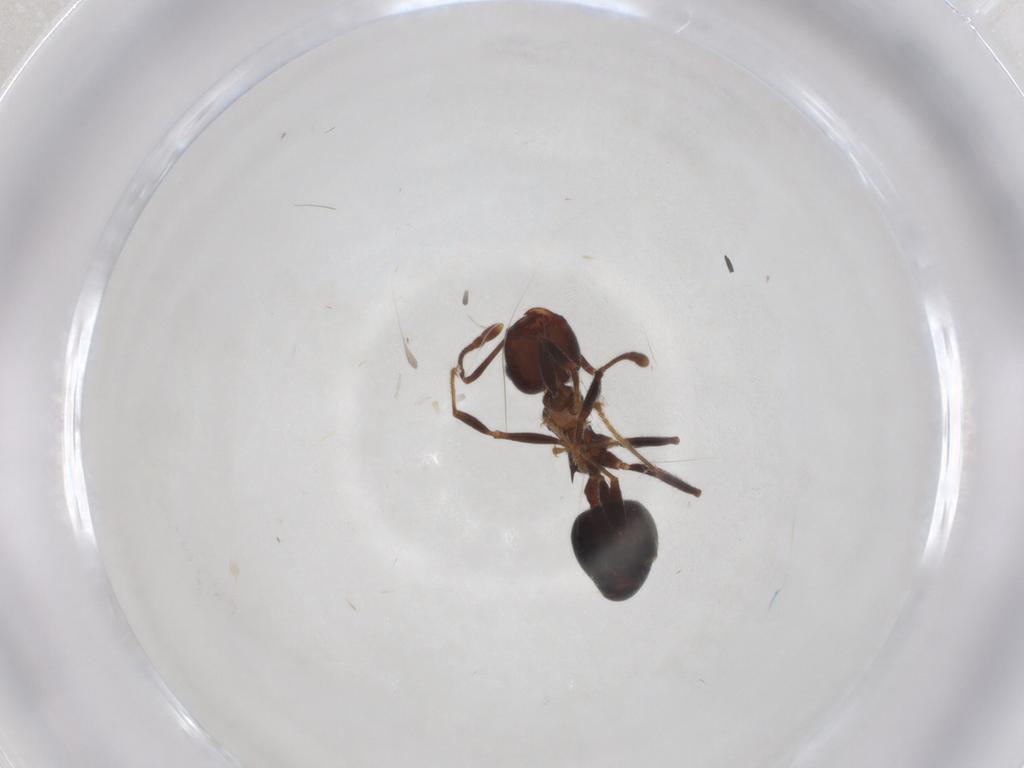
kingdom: Animalia
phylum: Arthropoda
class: Insecta
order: Hymenoptera
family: Formicidae
